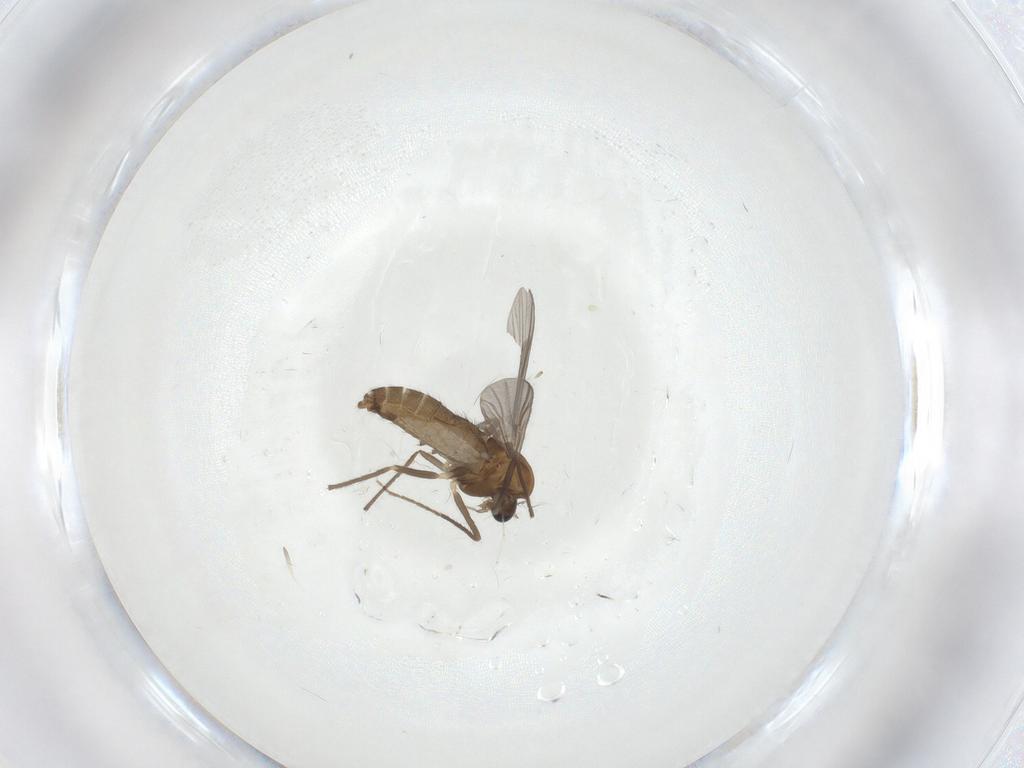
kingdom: Animalia
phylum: Arthropoda
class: Insecta
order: Diptera
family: Chironomidae
